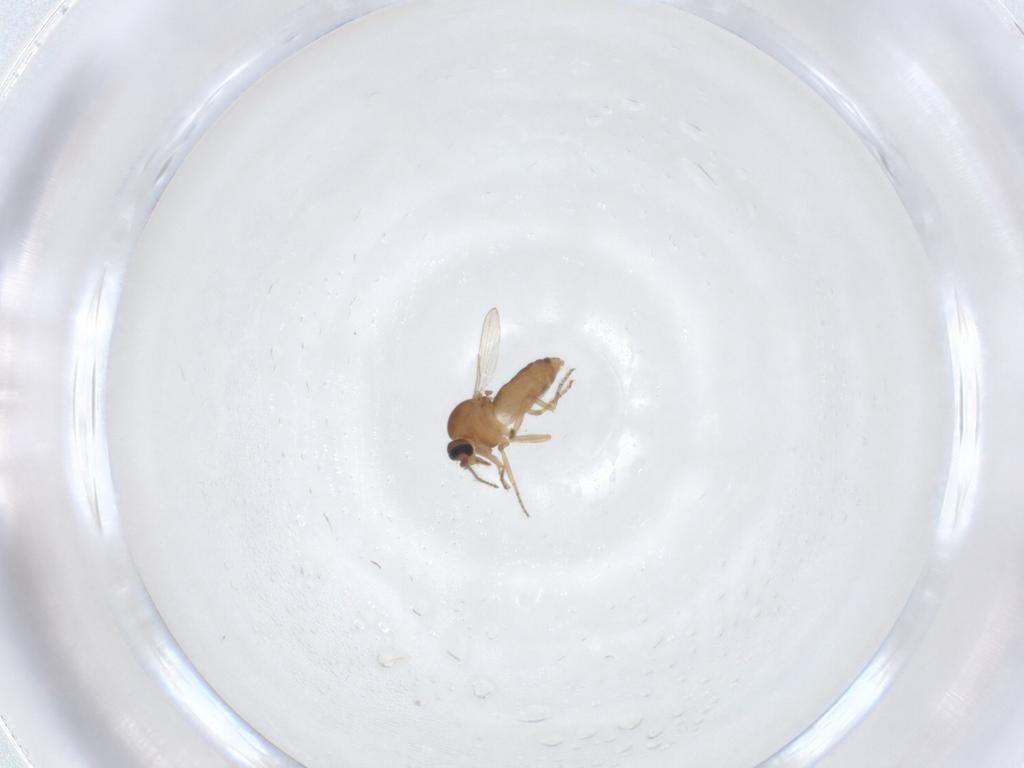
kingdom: Animalia
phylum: Arthropoda
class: Insecta
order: Diptera
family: Ceratopogonidae
